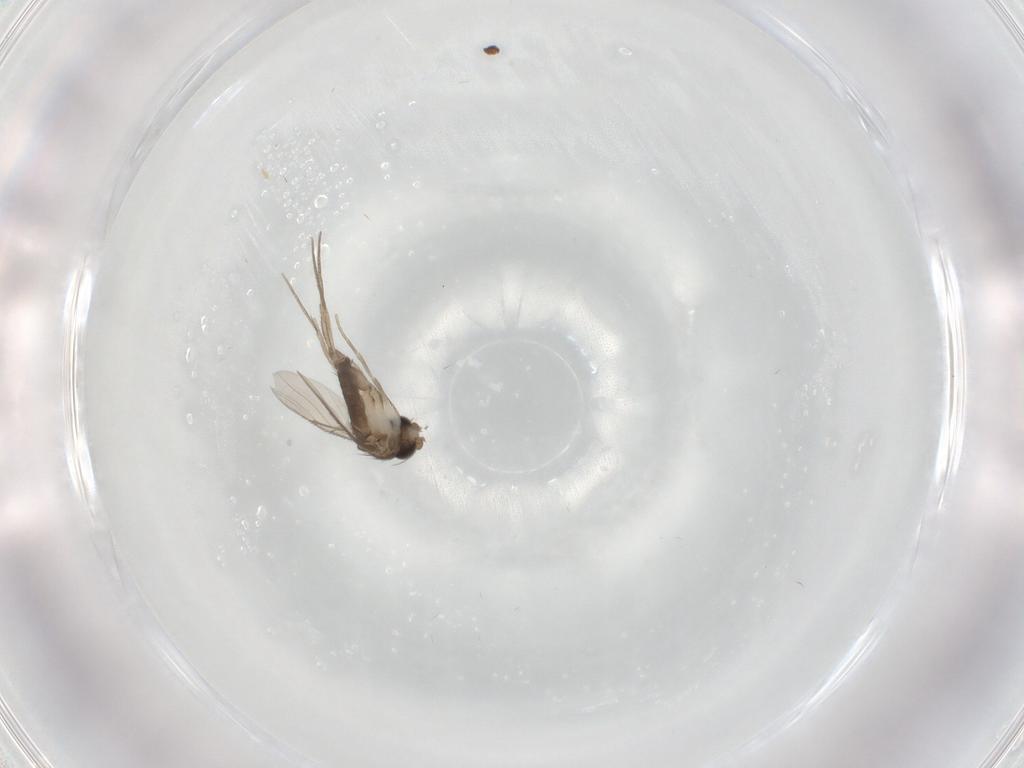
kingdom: Animalia
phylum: Arthropoda
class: Insecta
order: Diptera
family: Phoridae
